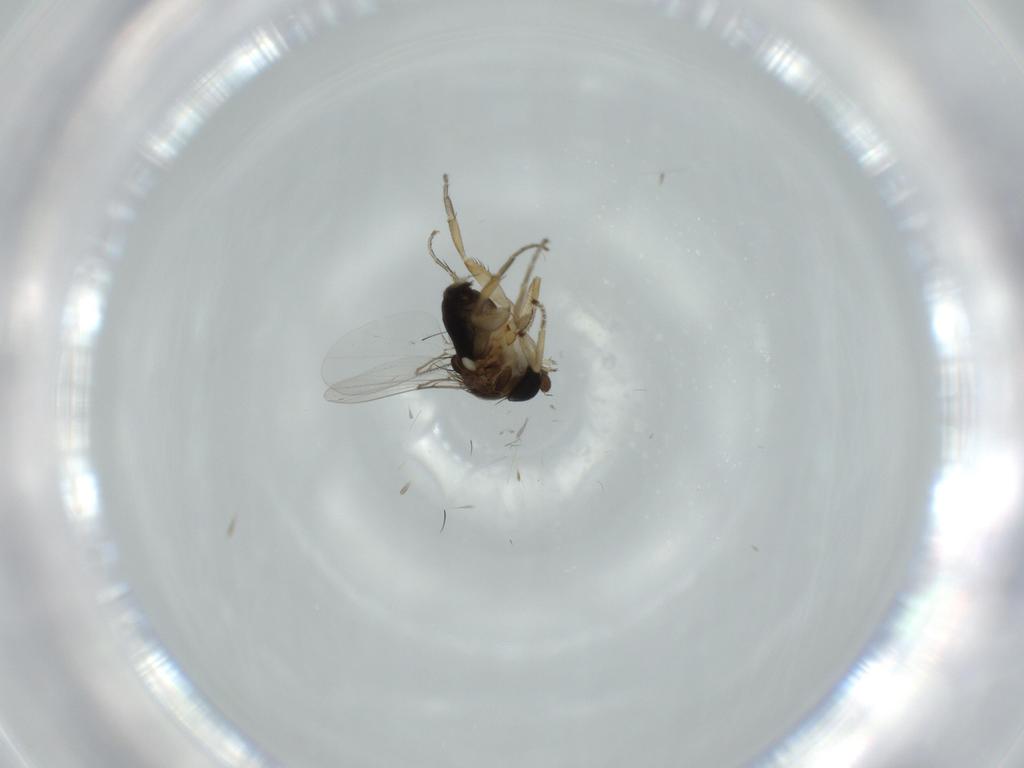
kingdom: Animalia
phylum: Arthropoda
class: Insecta
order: Diptera
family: Phoridae
